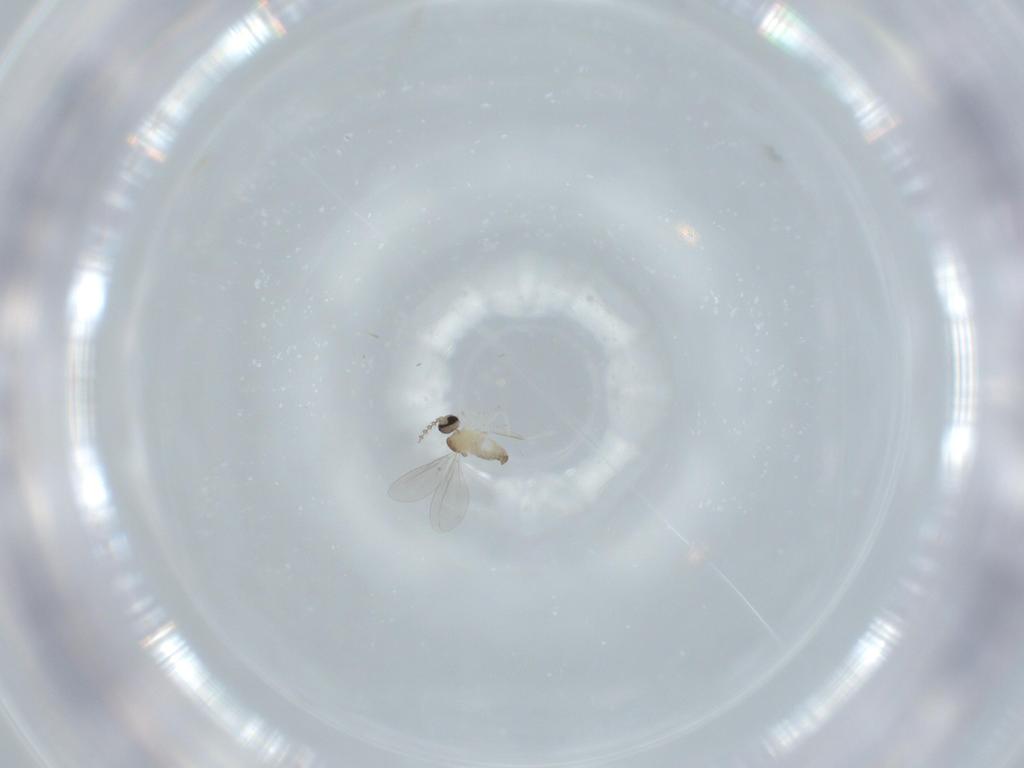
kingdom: Animalia
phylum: Arthropoda
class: Insecta
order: Diptera
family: Cecidomyiidae
